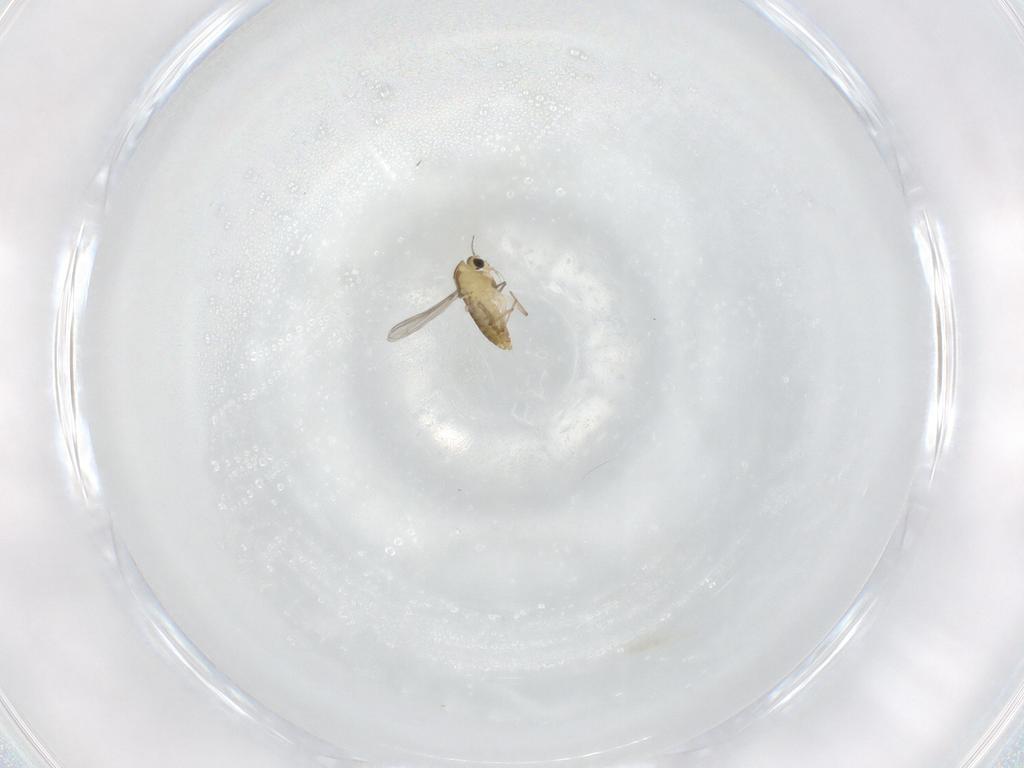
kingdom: Animalia
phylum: Arthropoda
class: Insecta
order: Diptera
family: Chironomidae
